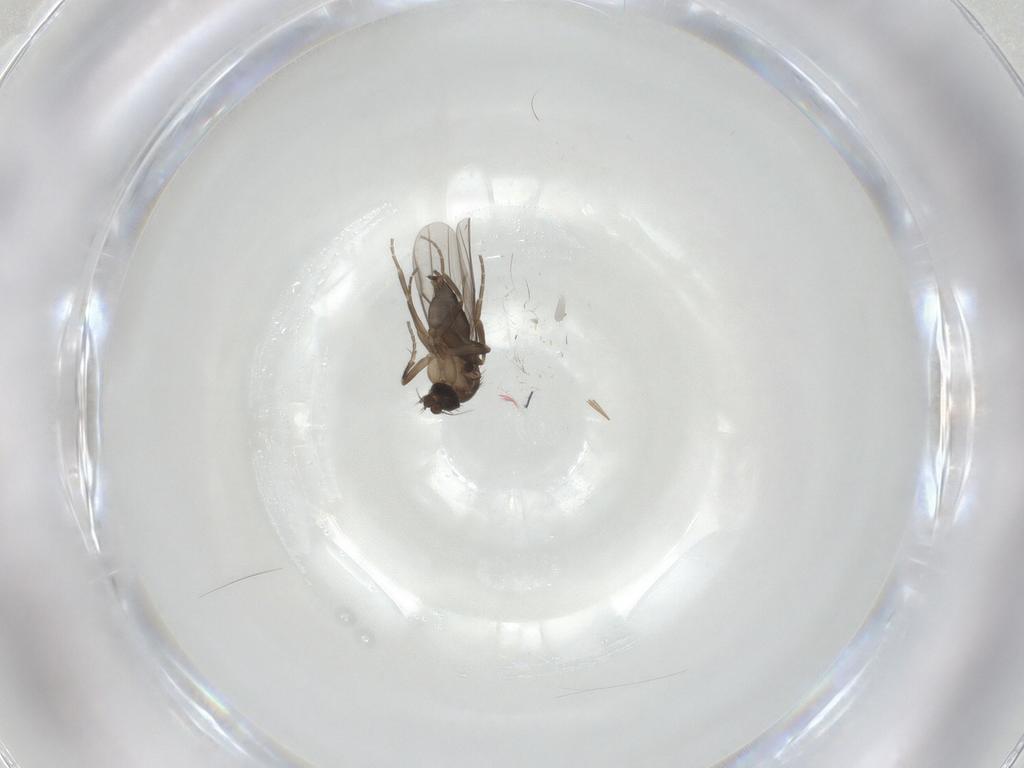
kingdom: Animalia
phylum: Arthropoda
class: Insecta
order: Diptera
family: Phoridae
